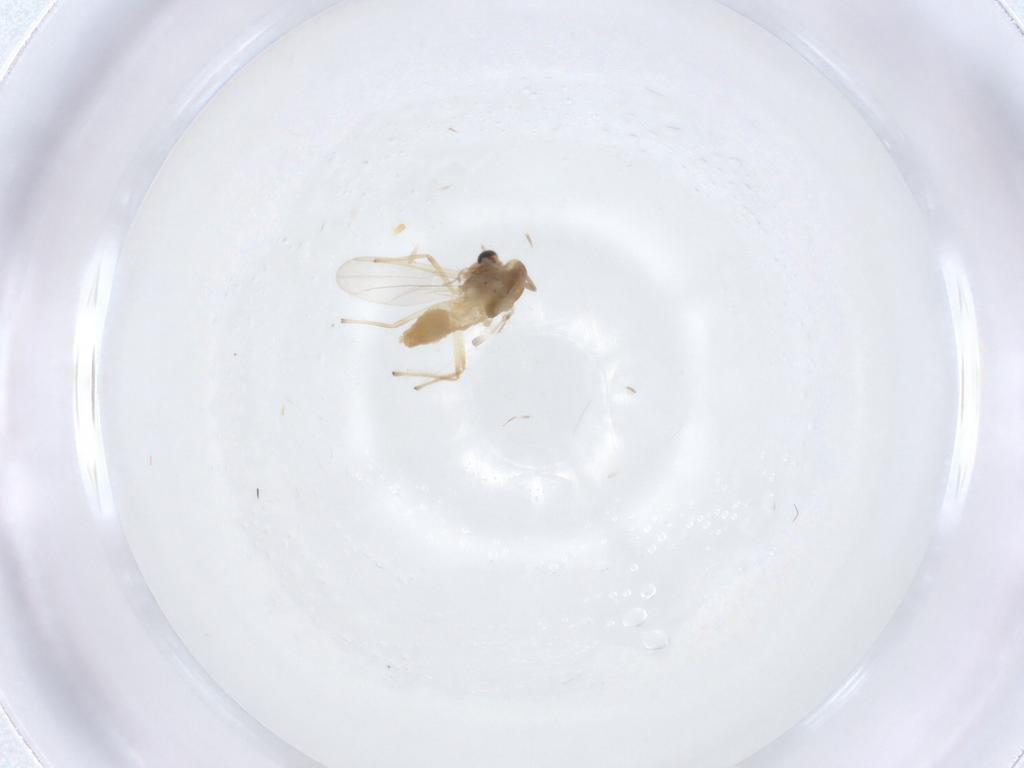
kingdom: Animalia
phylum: Arthropoda
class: Insecta
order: Diptera
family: Chironomidae
